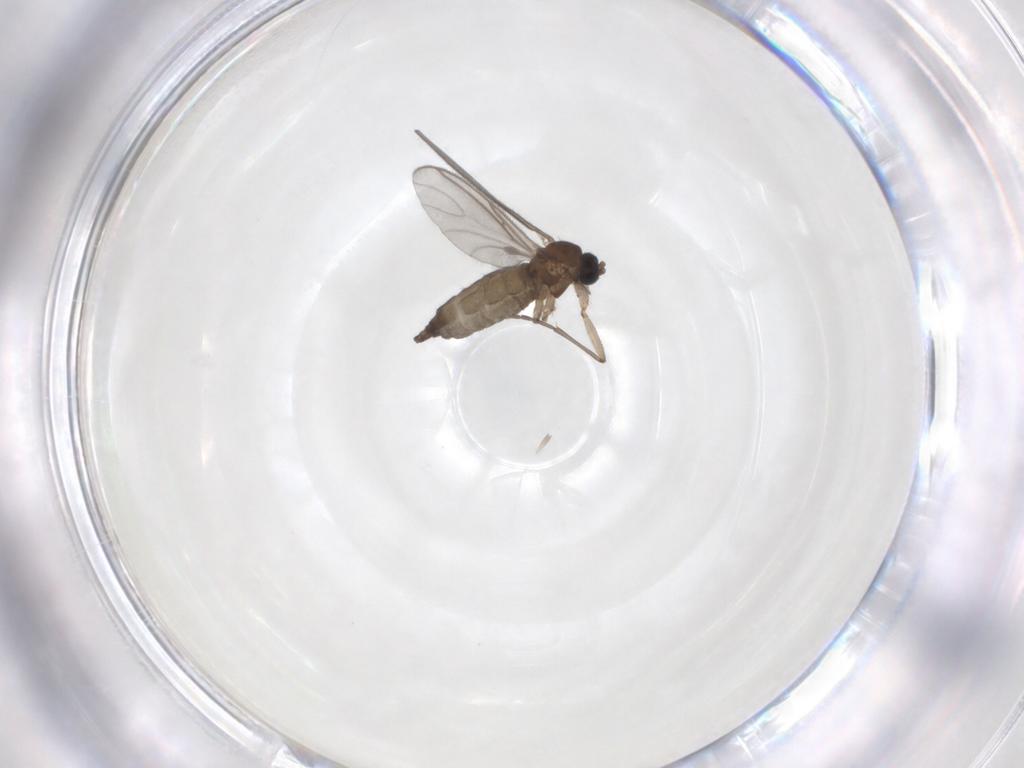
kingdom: Animalia
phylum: Arthropoda
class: Insecta
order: Diptera
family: Sciaridae
